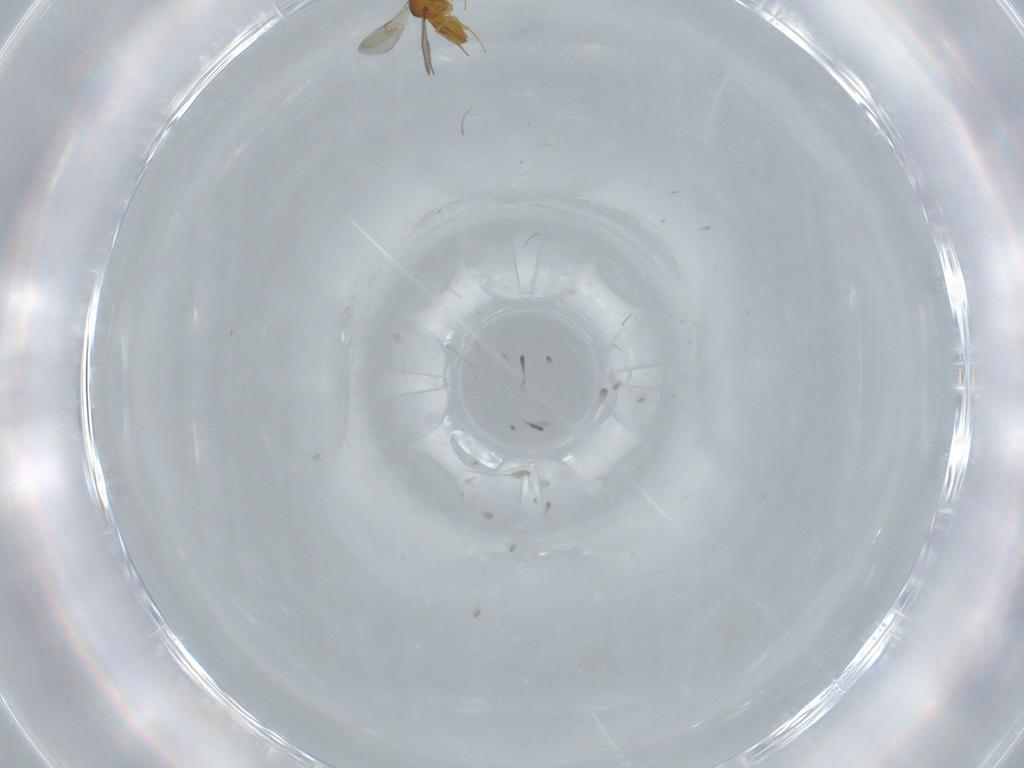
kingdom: Animalia
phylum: Arthropoda
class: Insecta
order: Hymenoptera
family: Scelionidae
